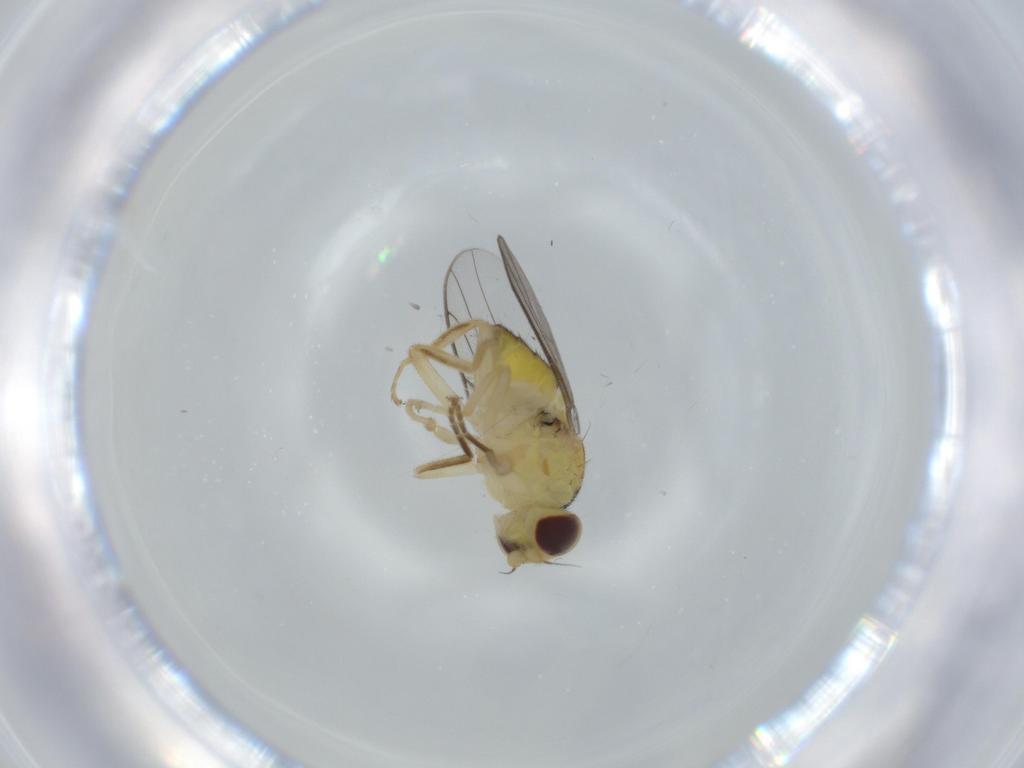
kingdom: Animalia
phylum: Arthropoda
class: Insecta
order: Diptera
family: Chloropidae
